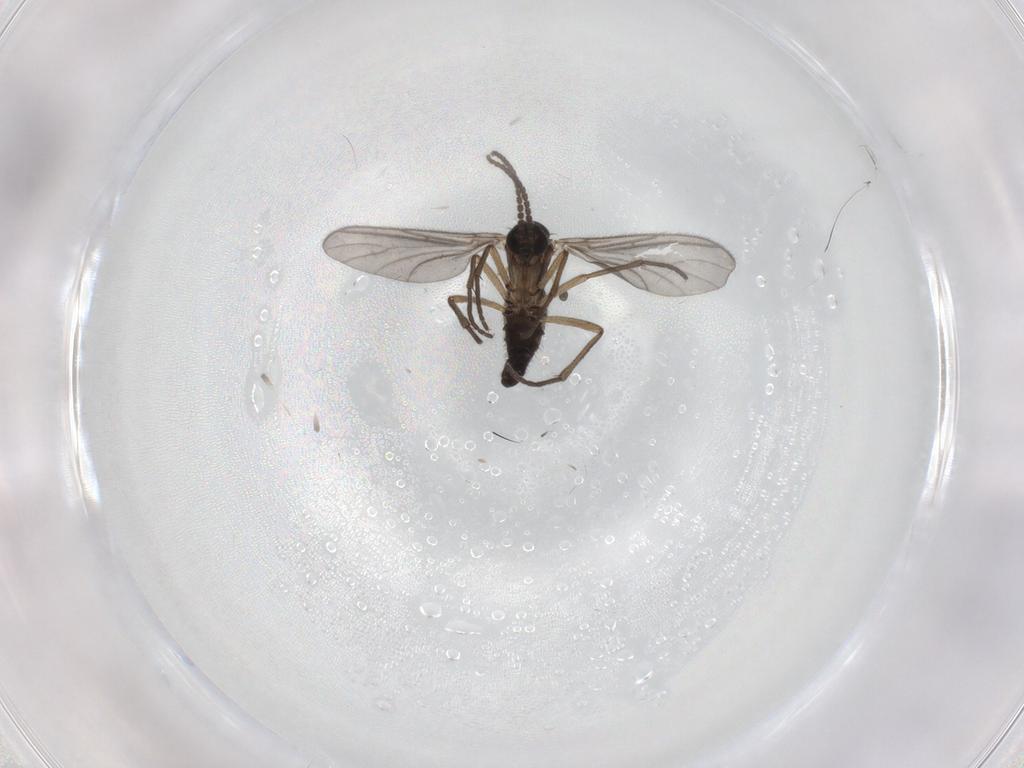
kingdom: Animalia
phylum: Arthropoda
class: Insecta
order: Diptera
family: Sciaridae
